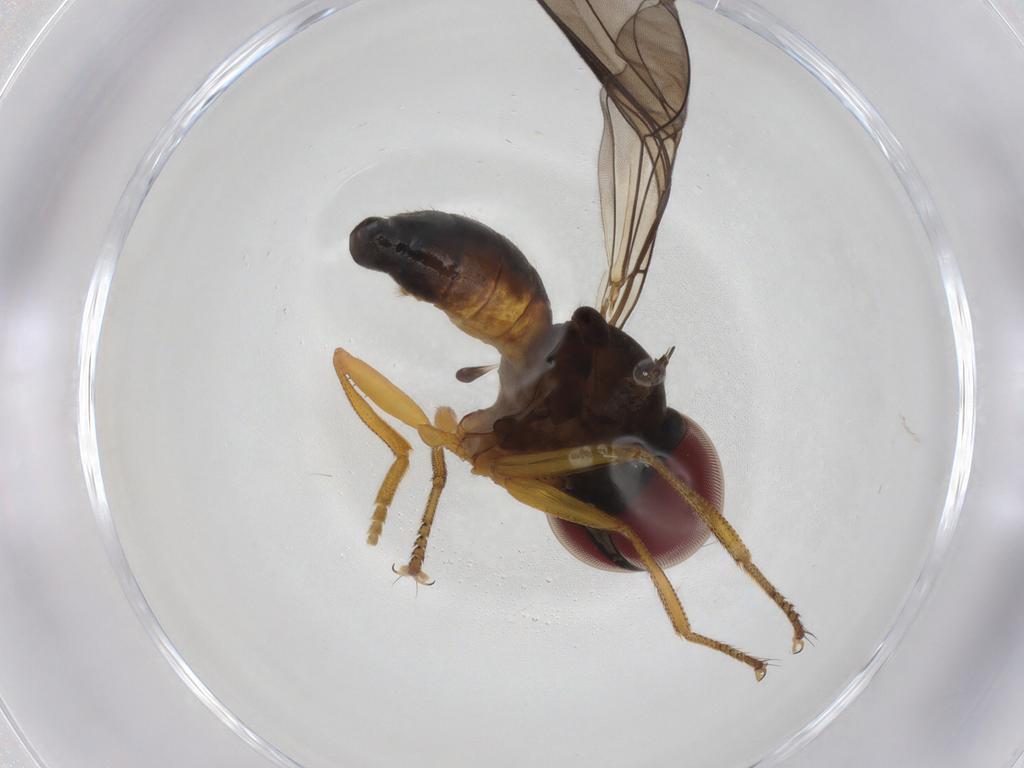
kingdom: Animalia
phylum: Arthropoda
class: Insecta
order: Diptera
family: Pipunculidae
